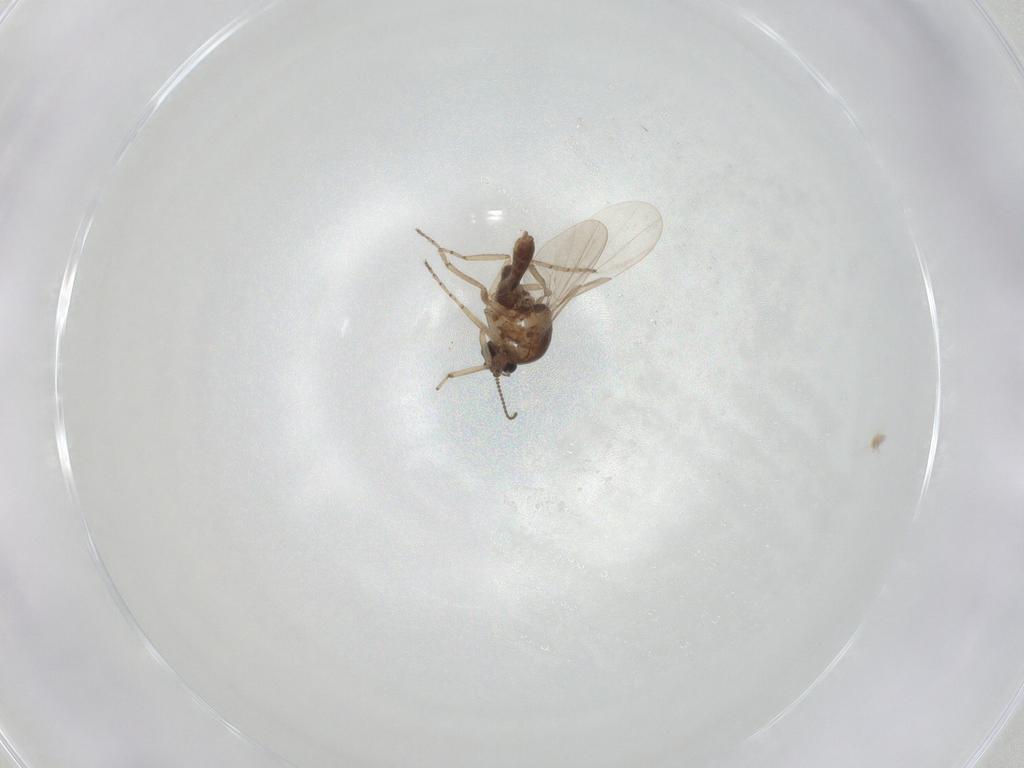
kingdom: Animalia
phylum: Arthropoda
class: Insecta
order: Diptera
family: Ceratopogonidae
